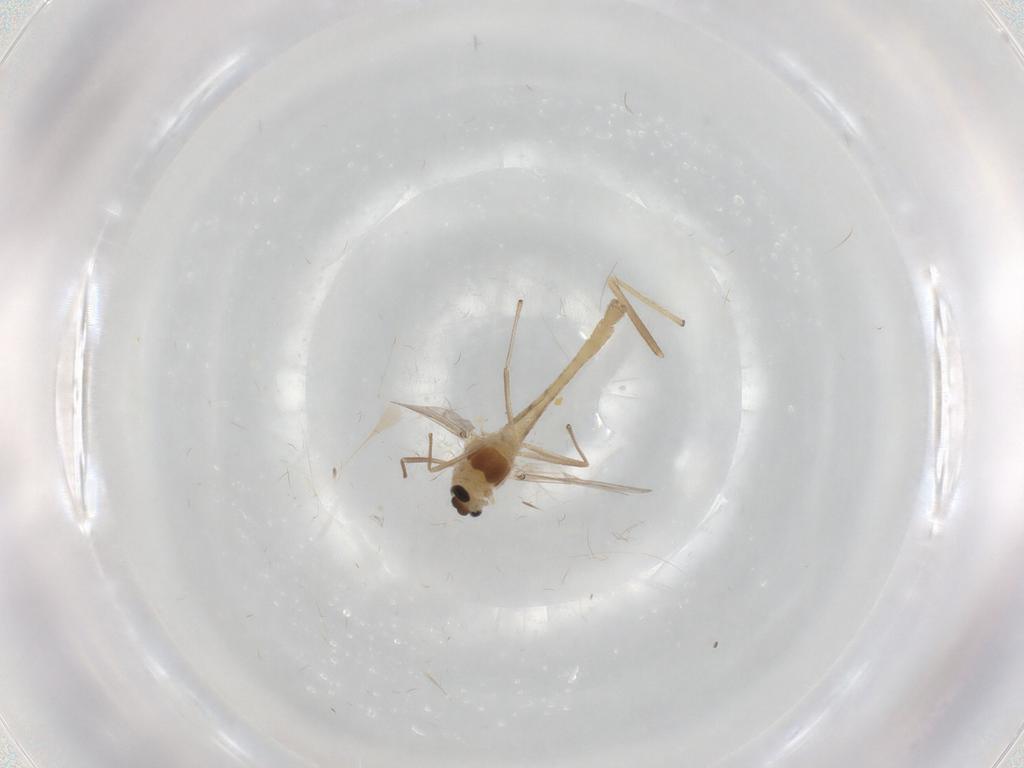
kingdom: Animalia
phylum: Arthropoda
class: Insecta
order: Diptera
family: Chironomidae
